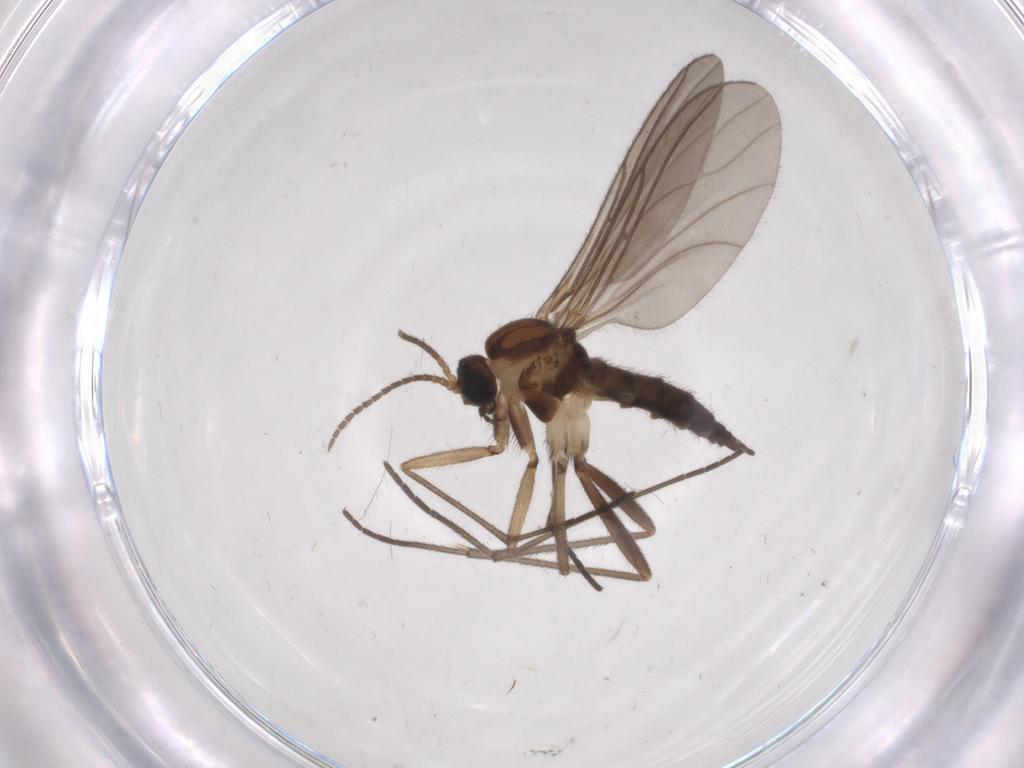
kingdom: Animalia
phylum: Arthropoda
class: Insecta
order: Diptera
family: Sciaridae
